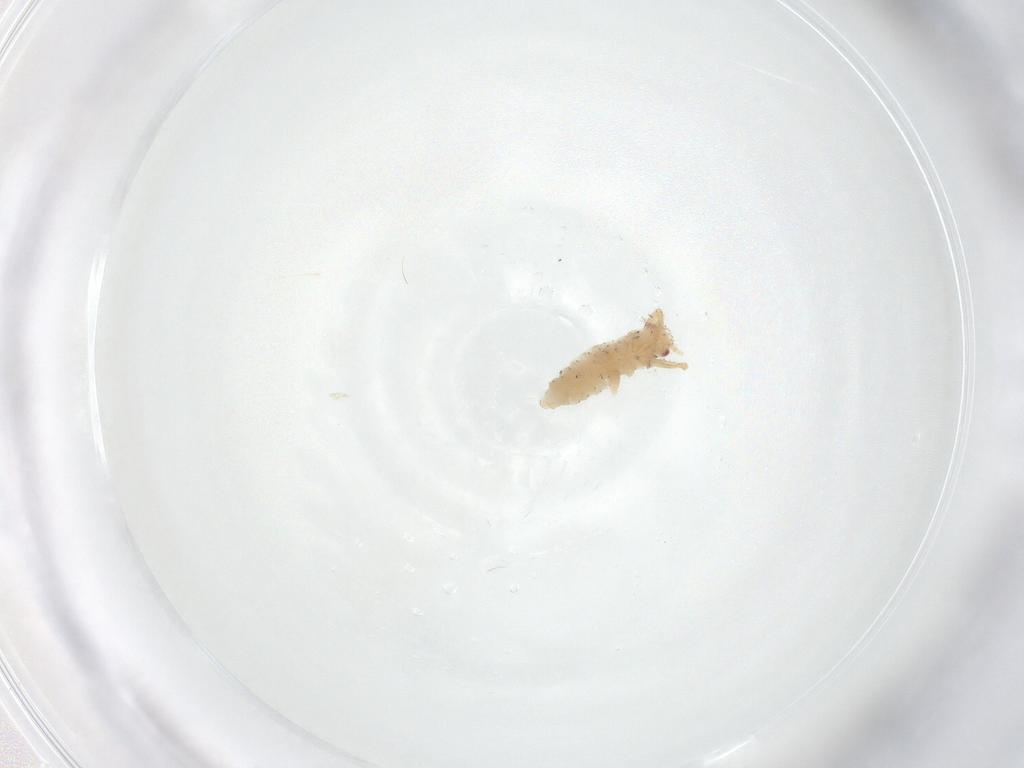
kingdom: Animalia
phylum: Arthropoda
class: Insecta
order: Hemiptera
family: Aphididae
